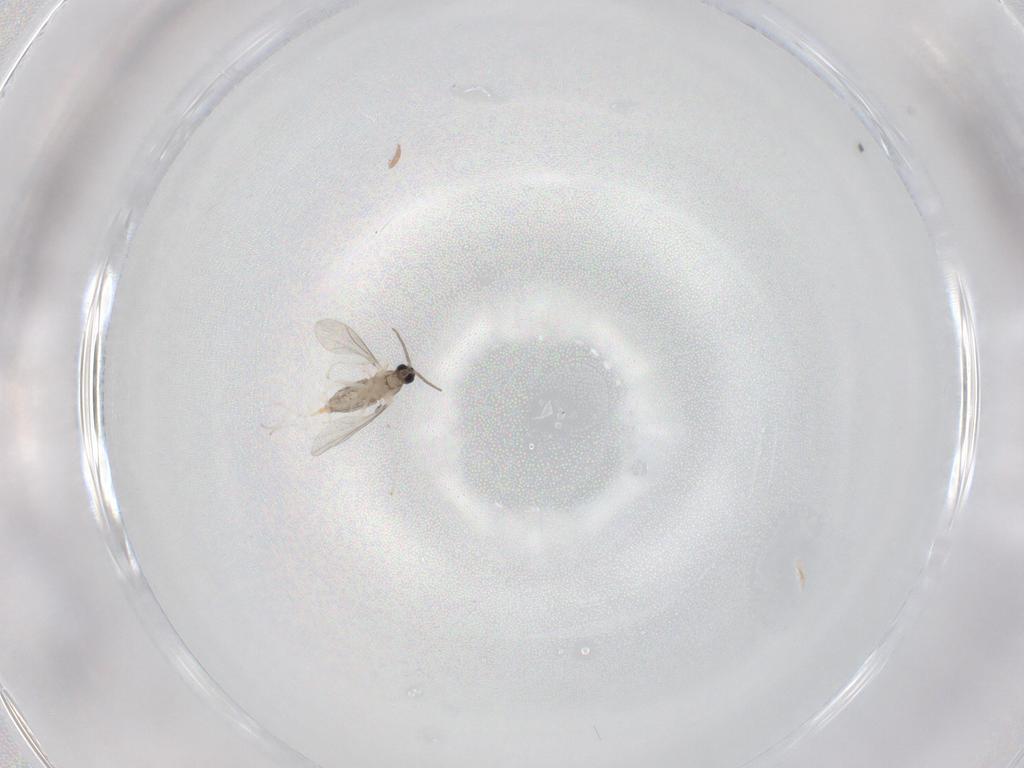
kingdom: Animalia
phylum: Arthropoda
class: Insecta
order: Diptera
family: Cecidomyiidae
